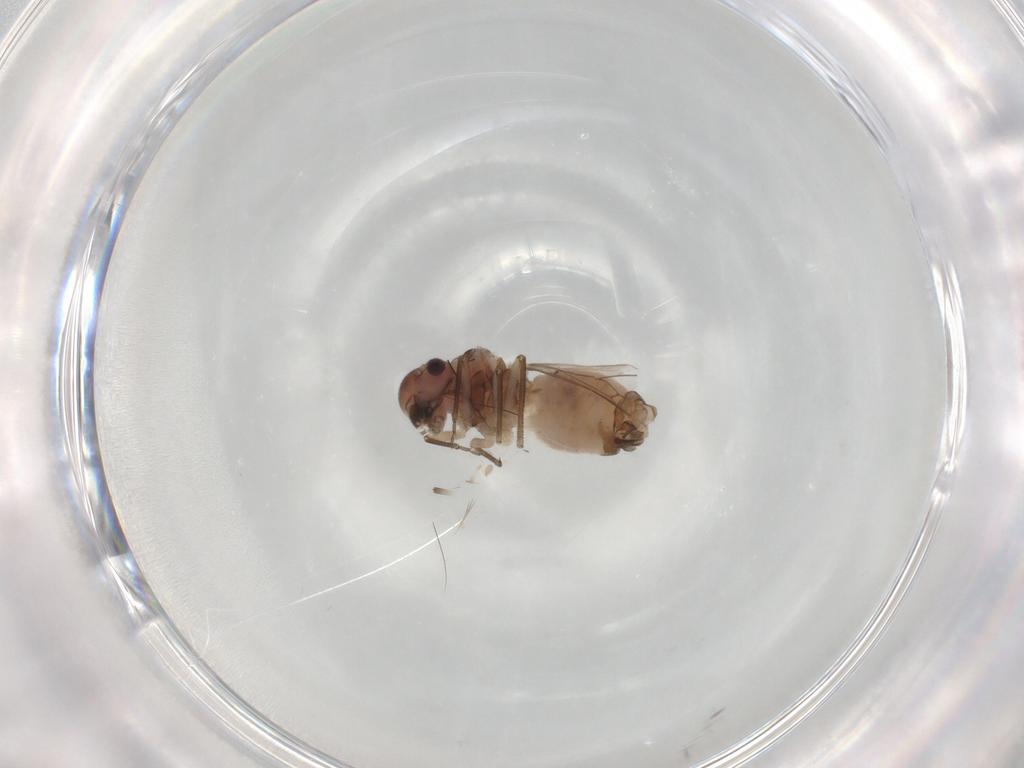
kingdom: Animalia
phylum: Arthropoda
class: Insecta
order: Psocodea
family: Peripsocidae
